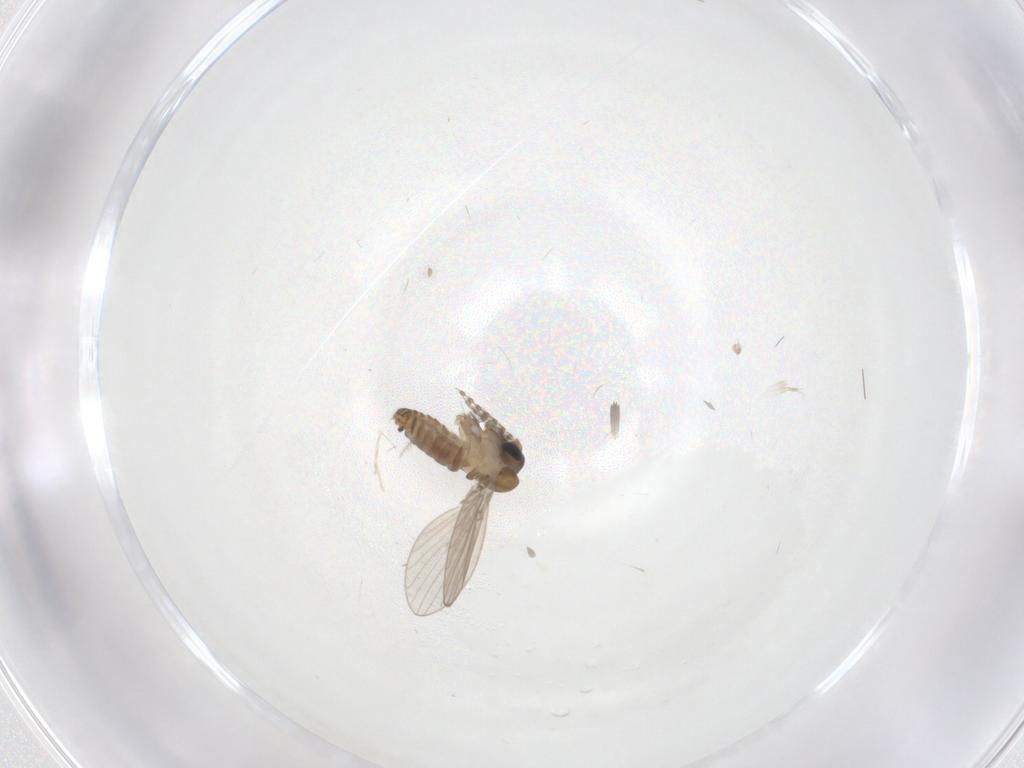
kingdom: Animalia
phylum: Arthropoda
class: Insecta
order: Diptera
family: Psychodidae
